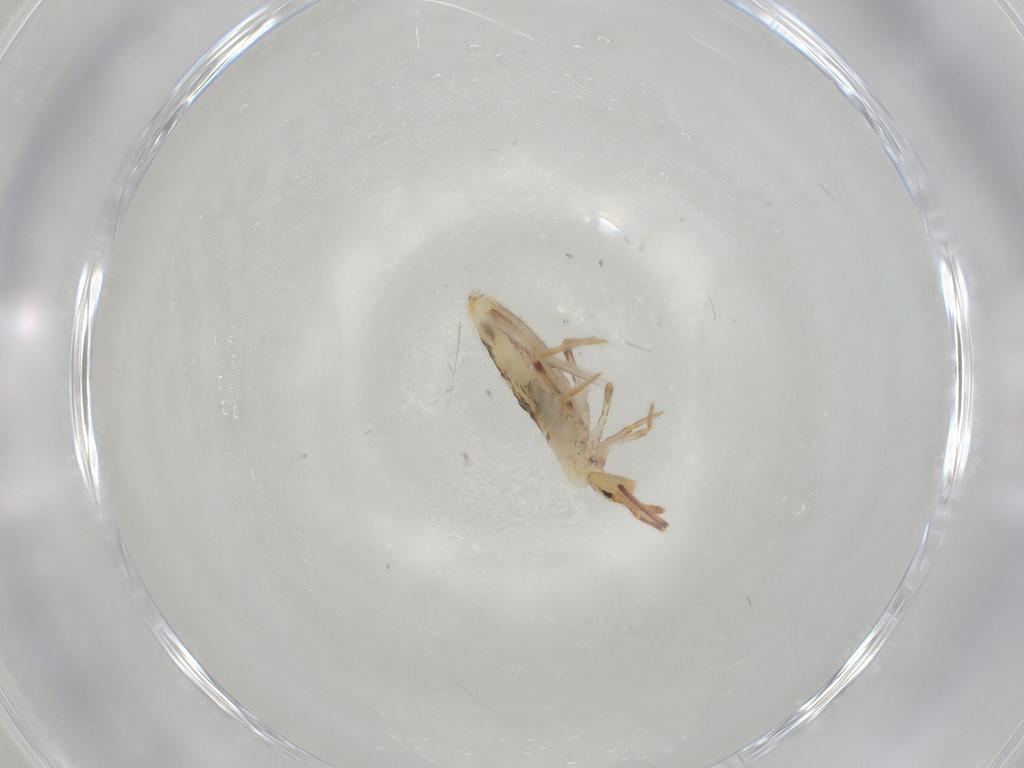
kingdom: Animalia
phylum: Arthropoda
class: Collembola
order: Poduromorpha
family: Hypogastruridae
